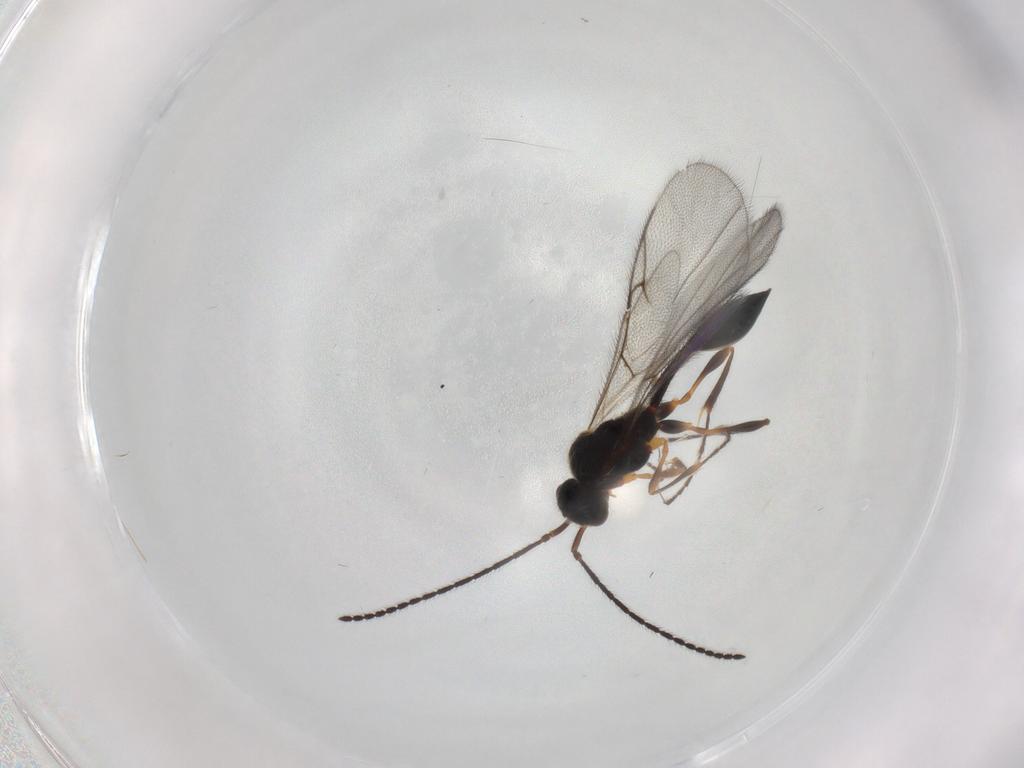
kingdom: Animalia
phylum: Arthropoda
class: Insecta
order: Hymenoptera
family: Diapriidae
